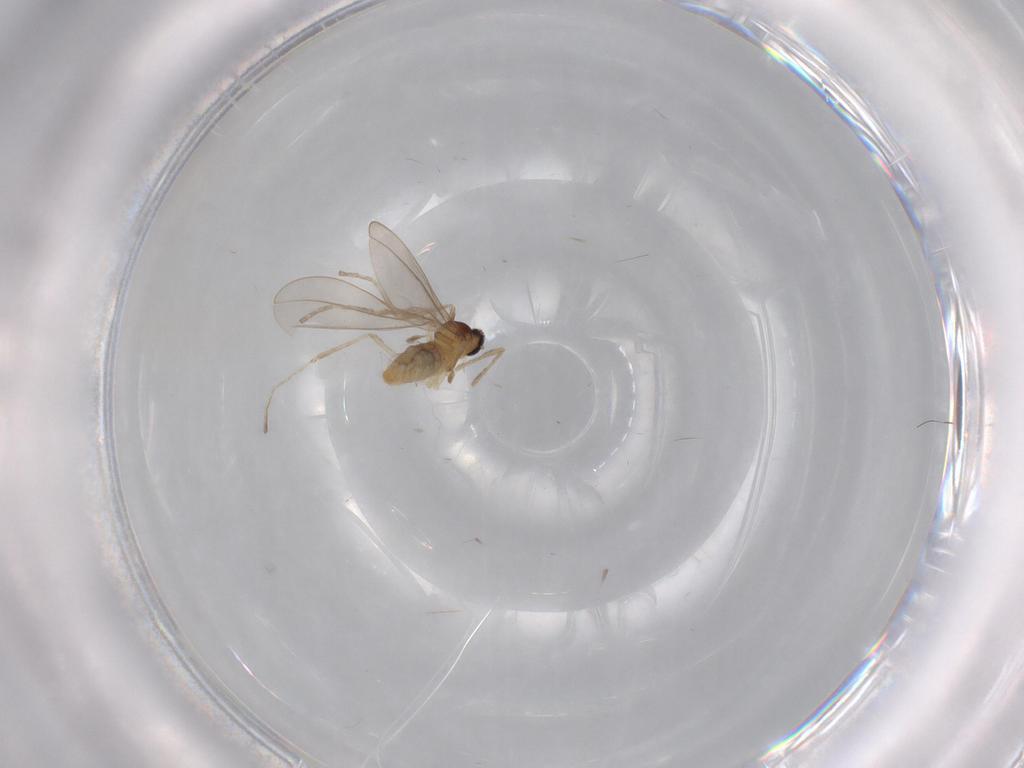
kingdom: Animalia
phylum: Arthropoda
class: Insecta
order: Diptera
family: Cecidomyiidae
